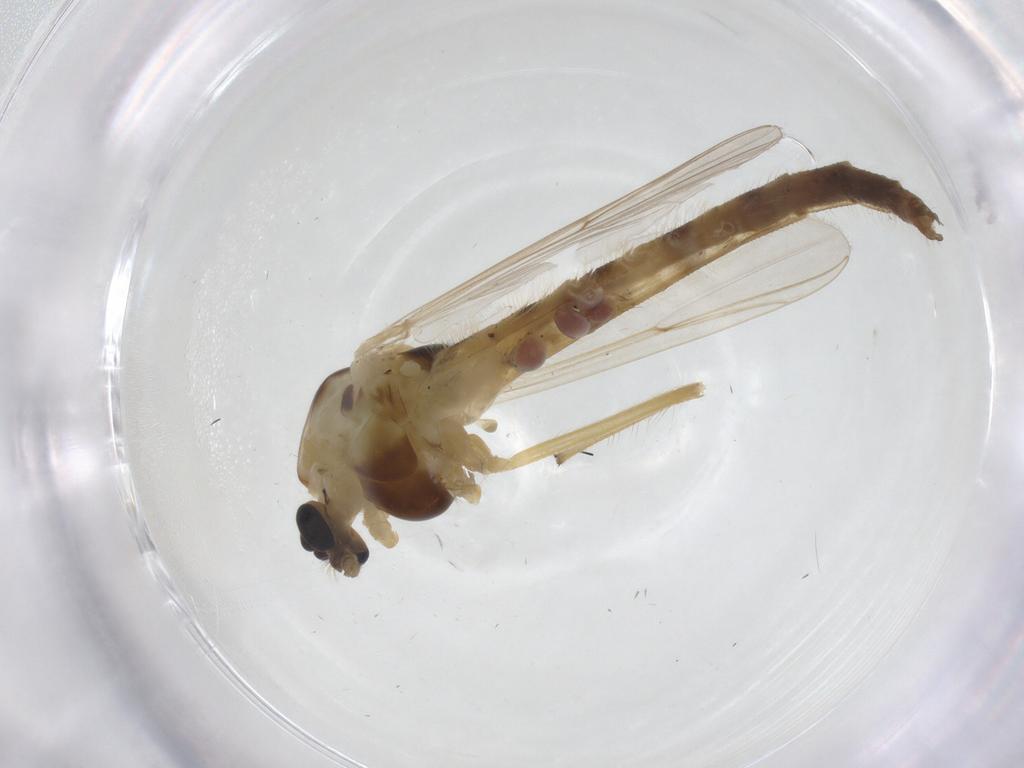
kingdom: Animalia
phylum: Arthropoda
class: Insecta
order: Diptera
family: Chironomidae
